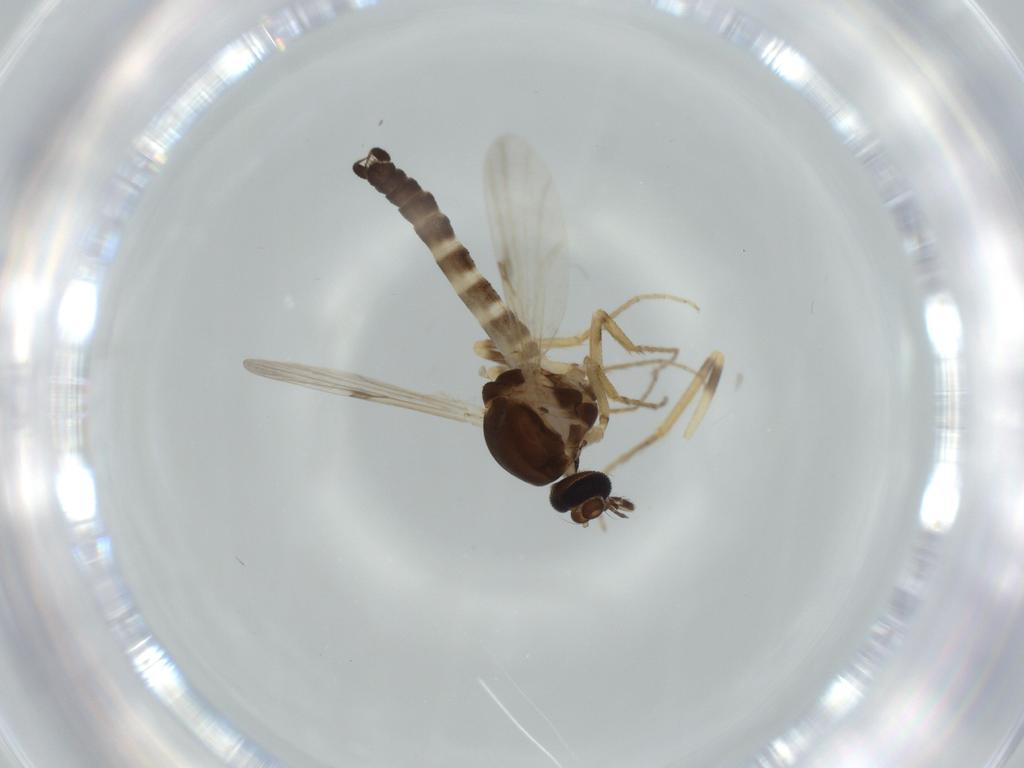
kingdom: Animalia
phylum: Arthropoda
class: Insecta
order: Diptera
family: Ceratopogonidae
